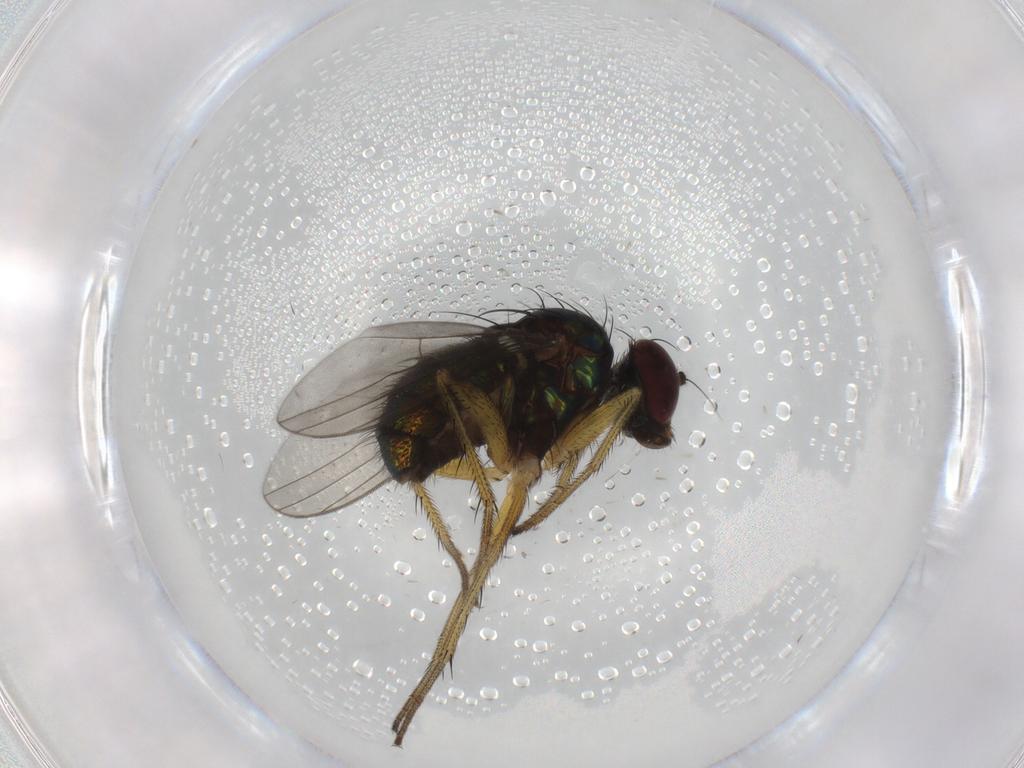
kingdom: Animalia
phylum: Arthropoda
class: Insecta
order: Diptera
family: Dolichopodidae
